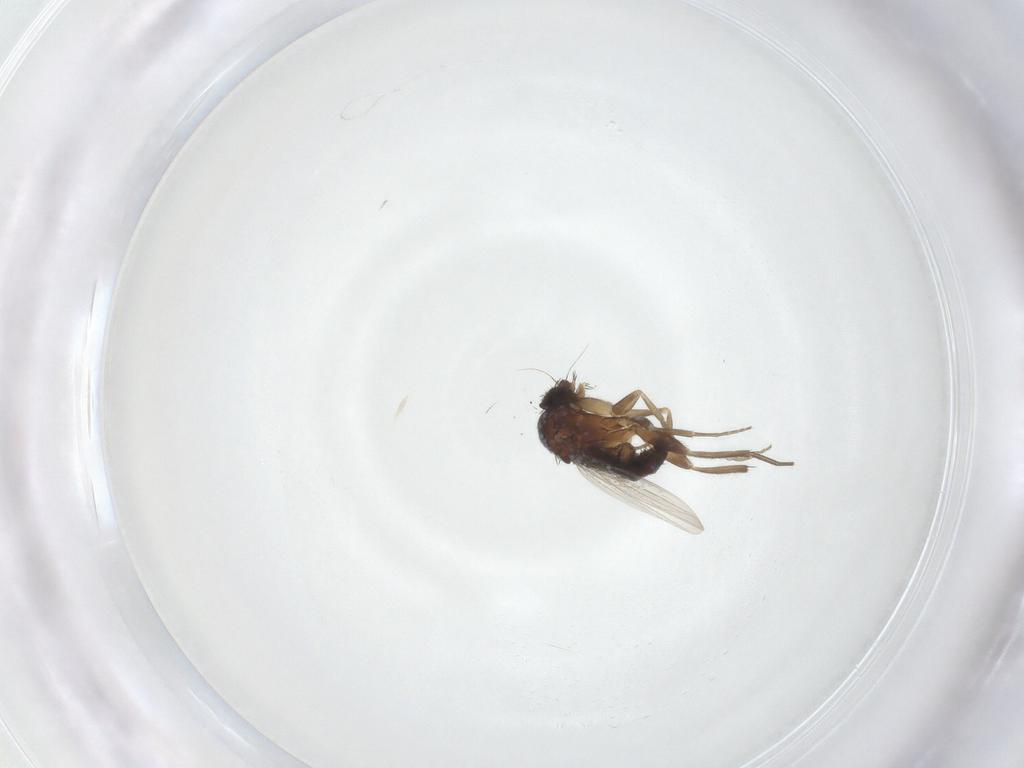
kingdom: Animalia
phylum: Arthropoda
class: Insecta
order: Diptera
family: Phoridae
